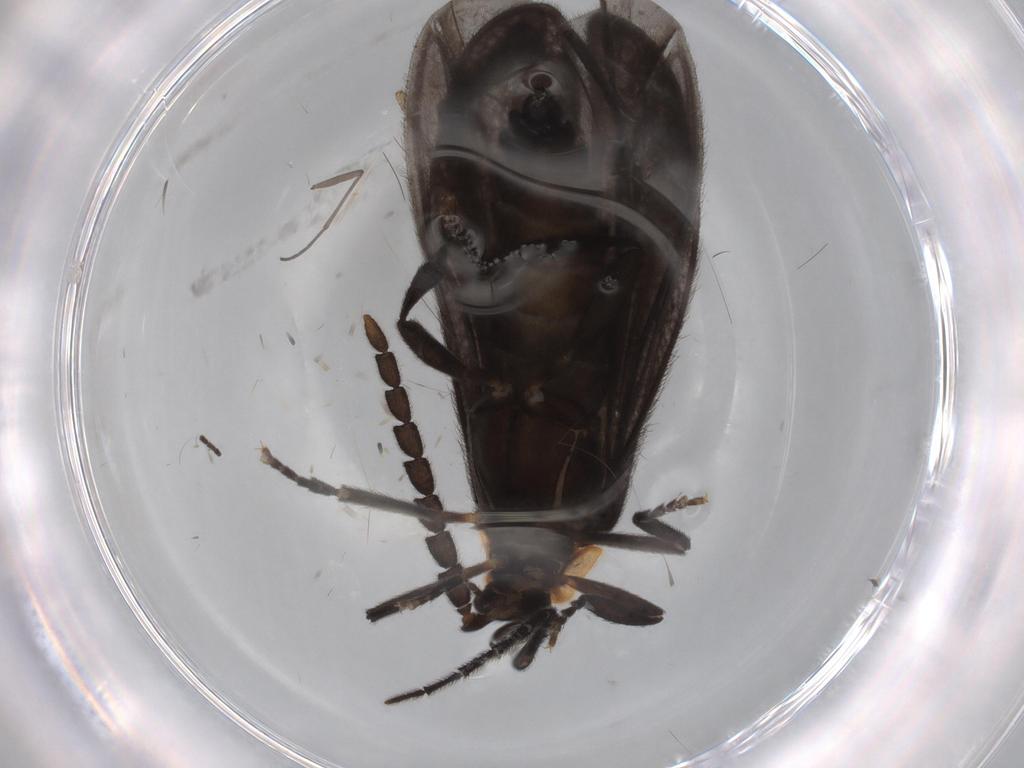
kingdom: Animalia
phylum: Arthropoda
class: Insecta
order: Coleoptera
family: Lycidae
